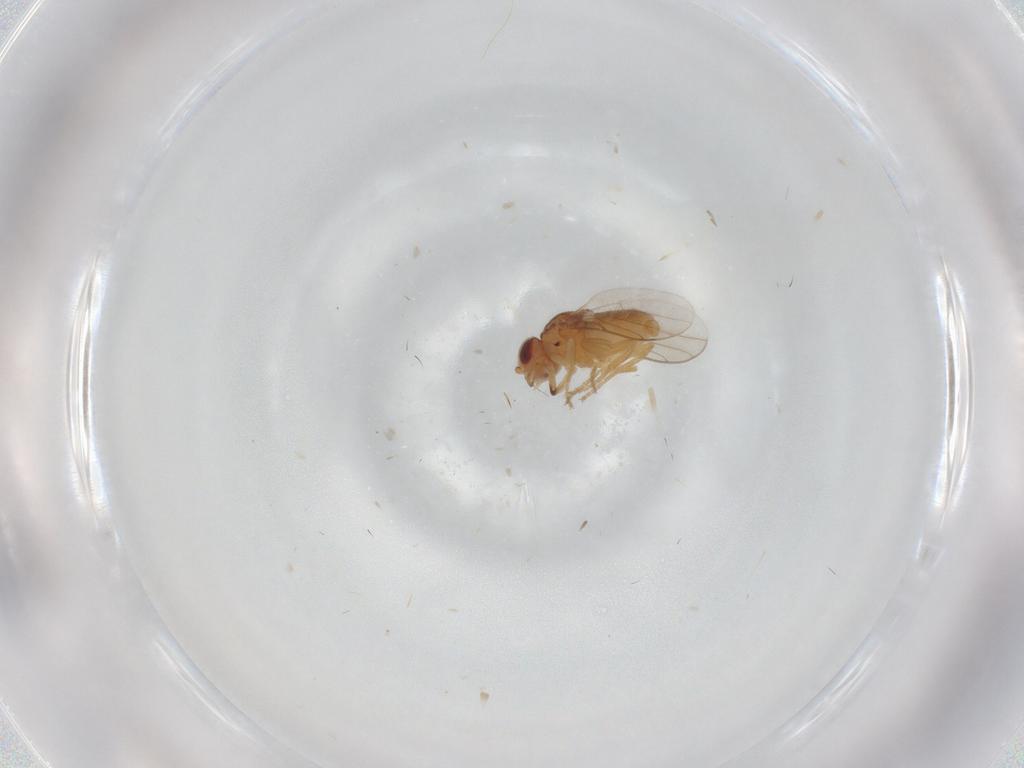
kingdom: Animalia
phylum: Arthropoda
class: Insecta
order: Diptera
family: Chloropidae
